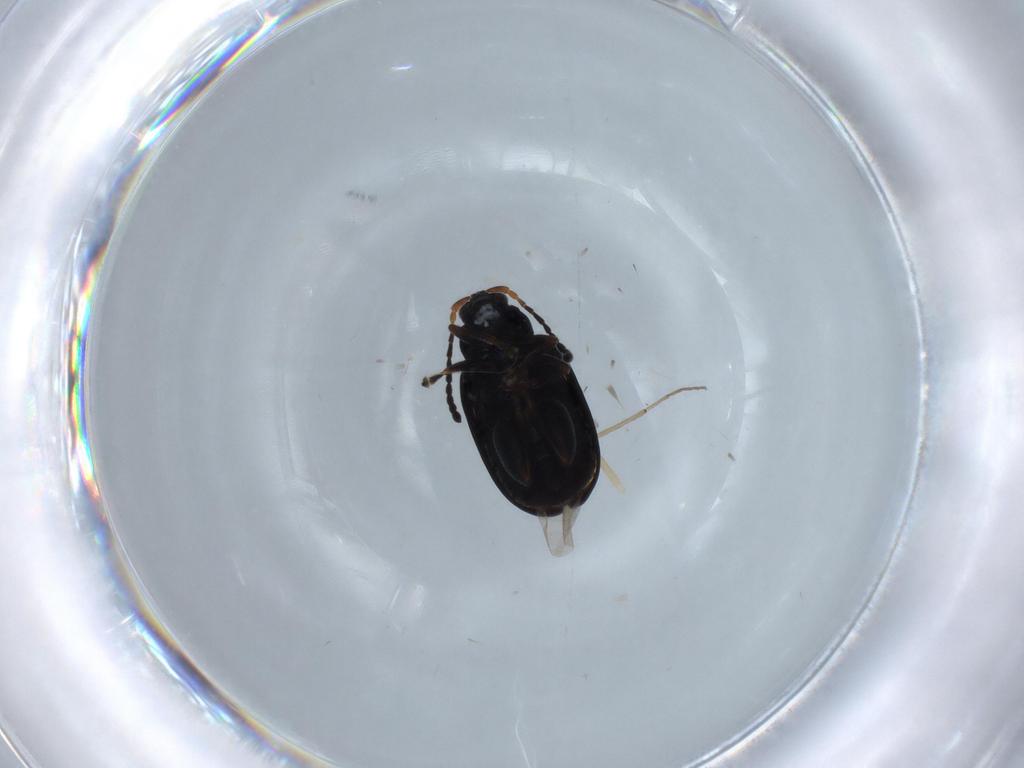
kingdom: Animalia
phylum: Arthropoda
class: Insecta
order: Coleoptera
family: Chrysomelidae
